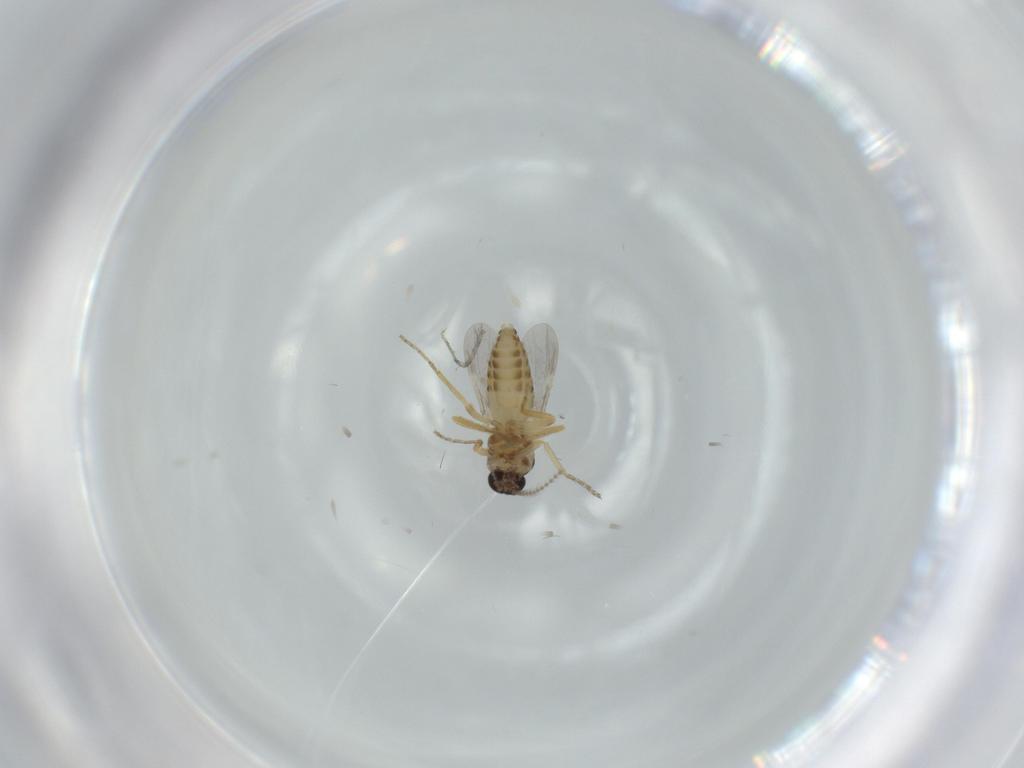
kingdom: Animalia
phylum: Arthropoda
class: Insecta
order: Diptera
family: Ceratopogonidae
